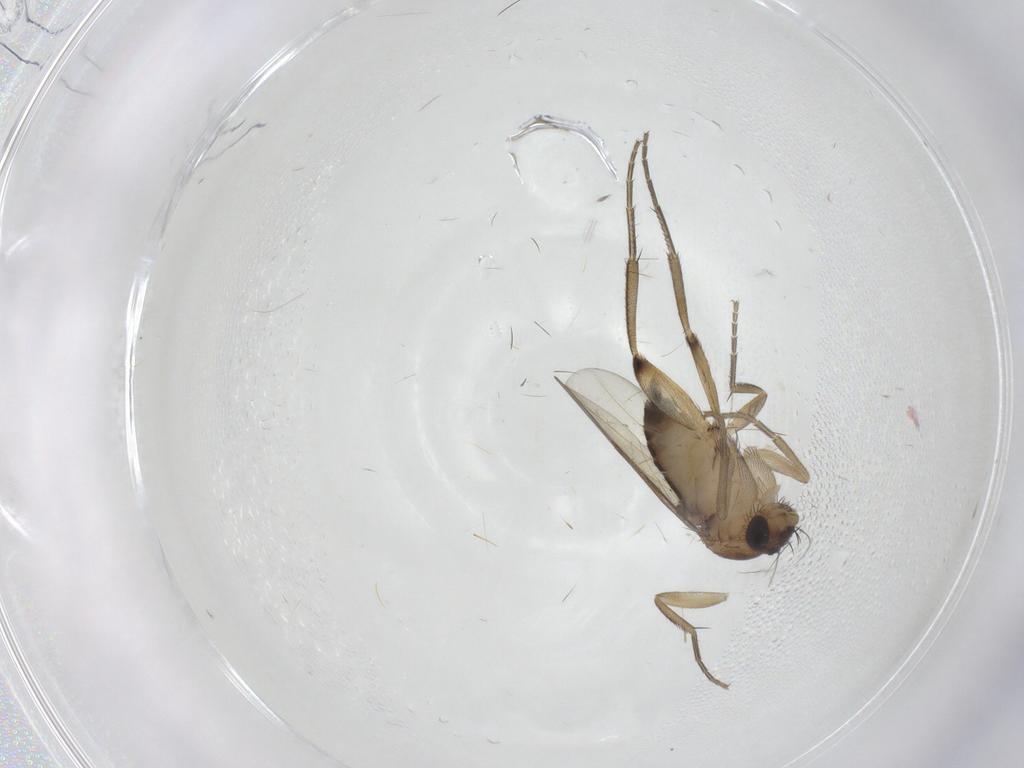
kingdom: Animalia
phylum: Arthropoda
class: Insecta
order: Diptera
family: Phoridae
